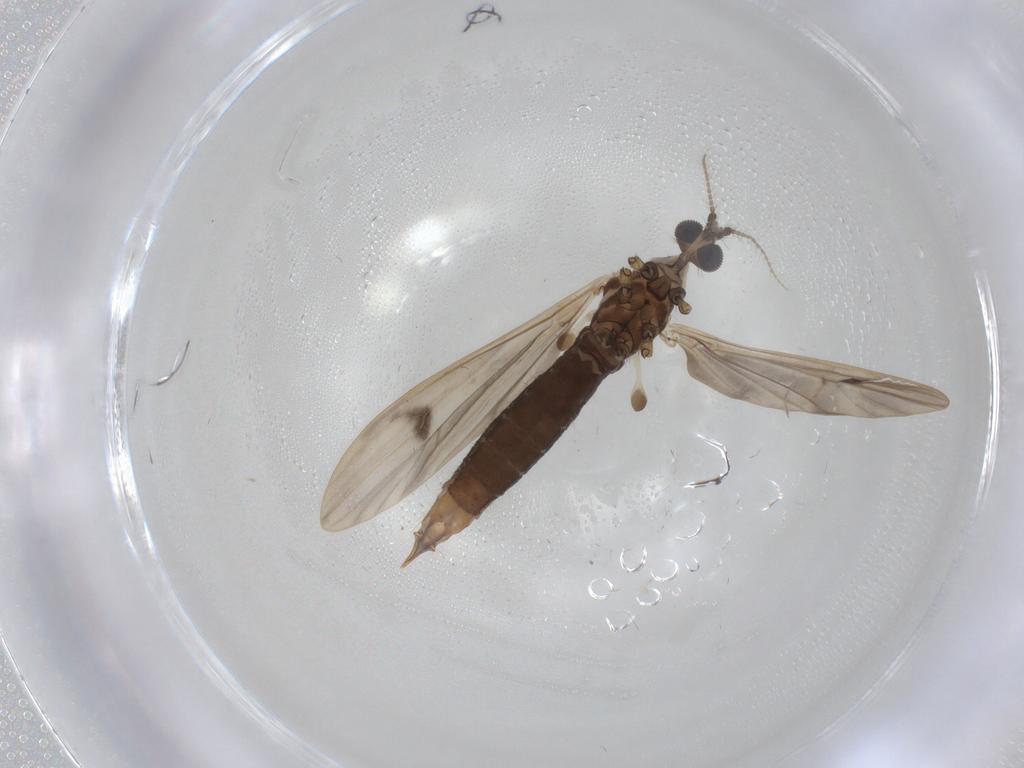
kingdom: Animalia
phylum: Arthropoda
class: Insecta
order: Diptera
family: Limoniidae
